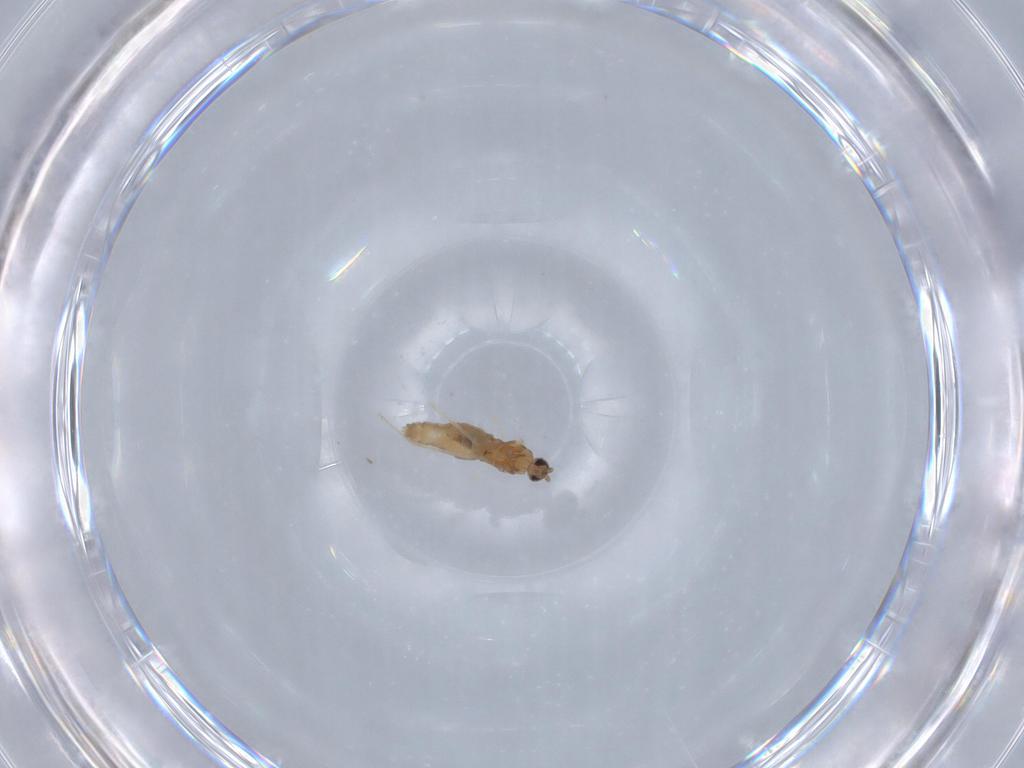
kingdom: Animalia
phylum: Arthropoda
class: Insecta
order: Diptera
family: Cecidomyiidae
